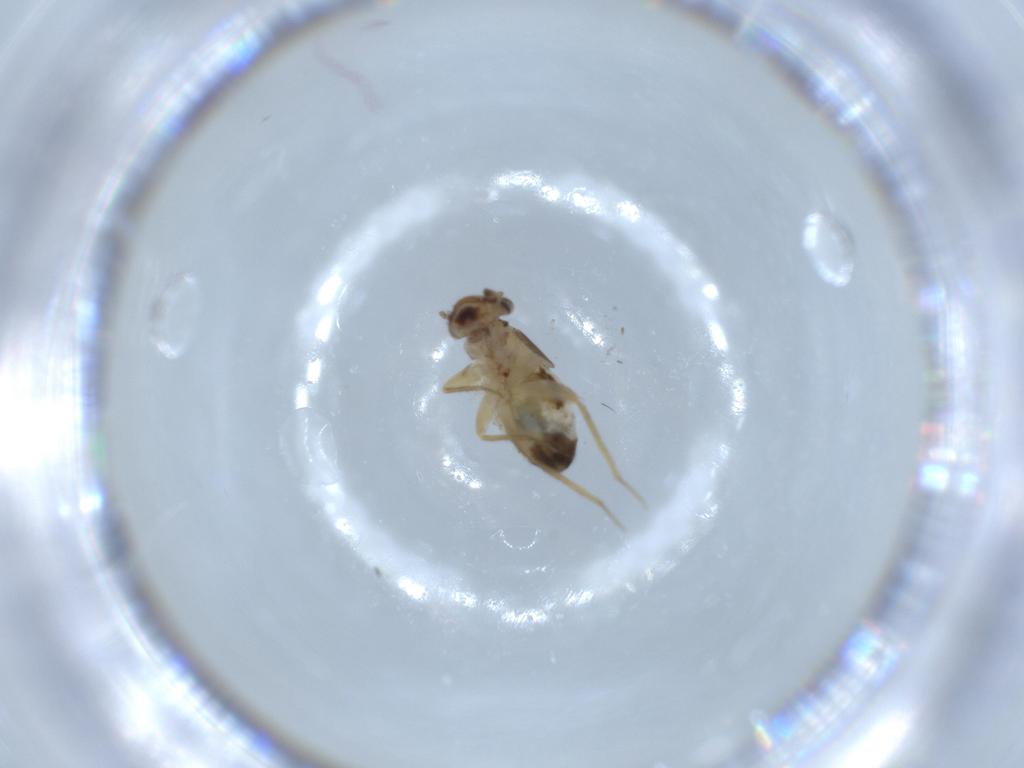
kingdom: Animalia
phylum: Arthropoda
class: Insecta
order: Psocodea
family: Lepidopsocidae
